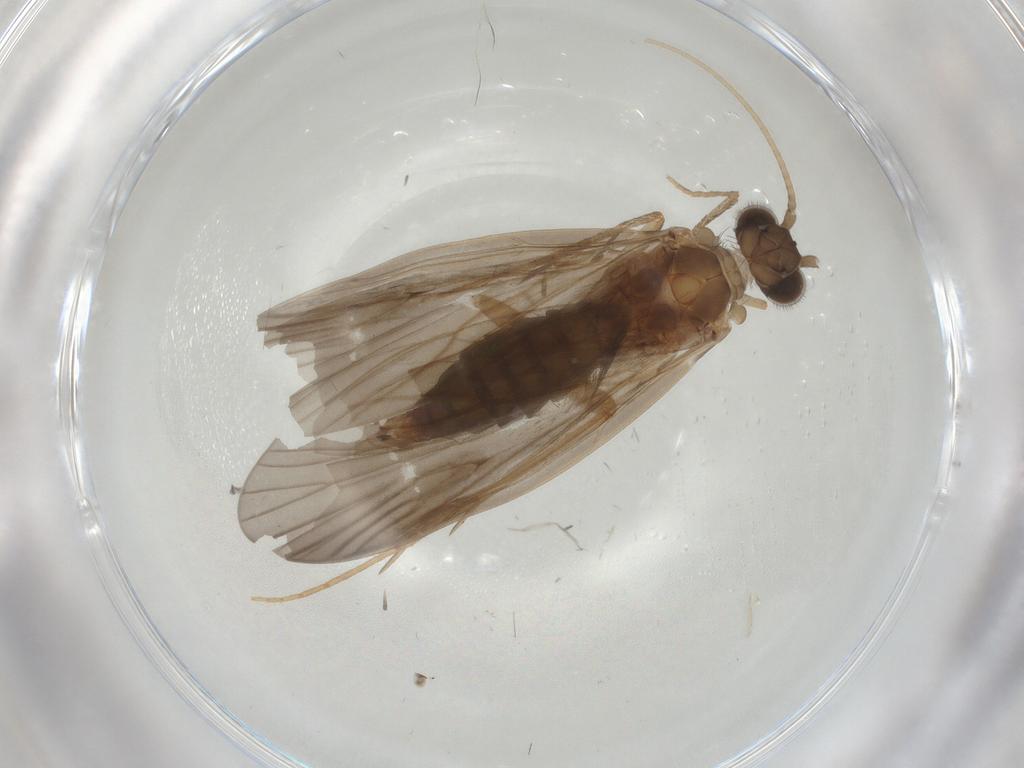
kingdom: Animalia
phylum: Arthropoda
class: Insecta
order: Trichoptera
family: Philopotamidae
